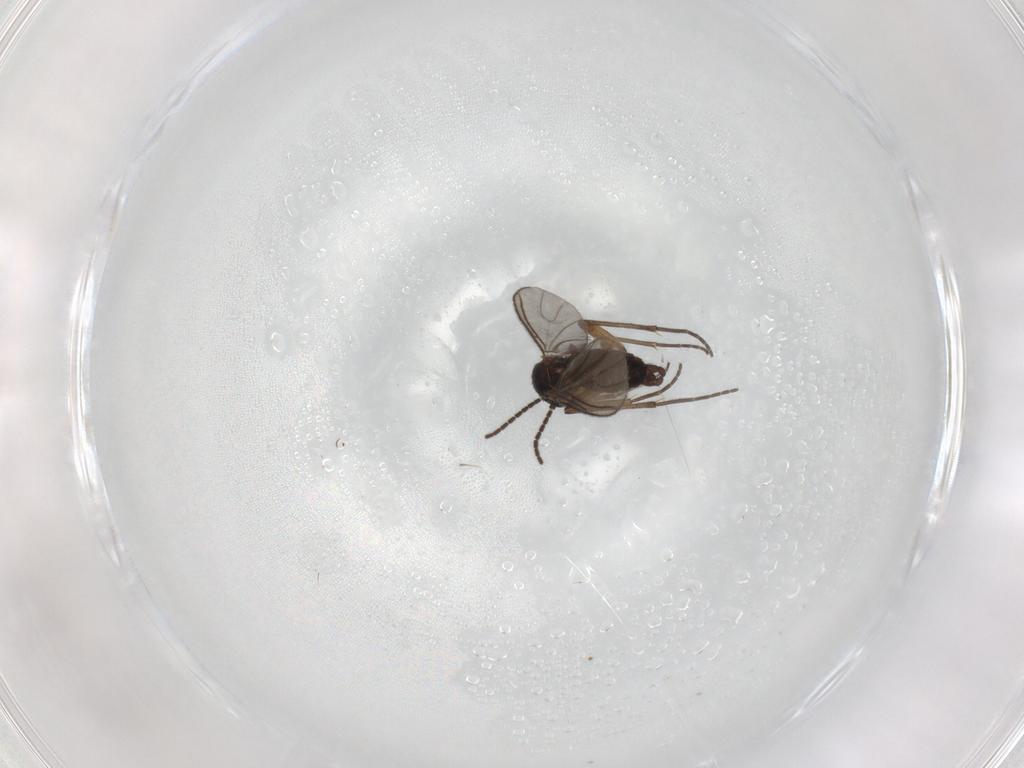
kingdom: Animalia
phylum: Arthropoda
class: Insecta
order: Diptera
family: Sciaridae
